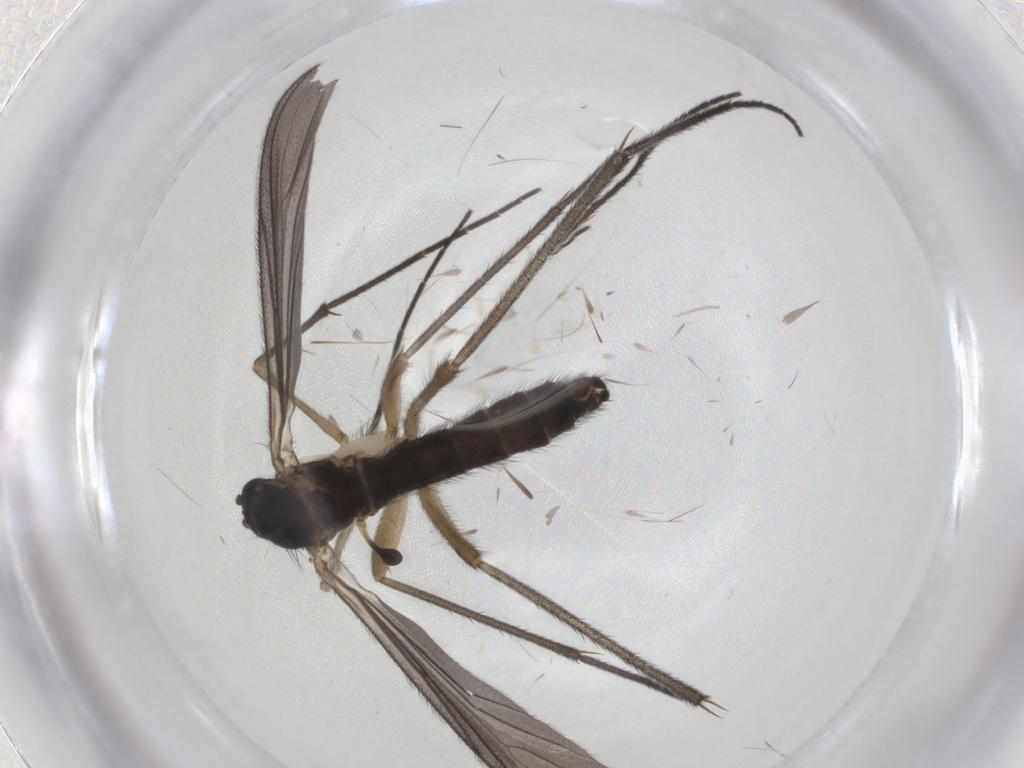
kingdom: Animalia
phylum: Arthropoda
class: Insecta
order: Diptera
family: Sciaridae
